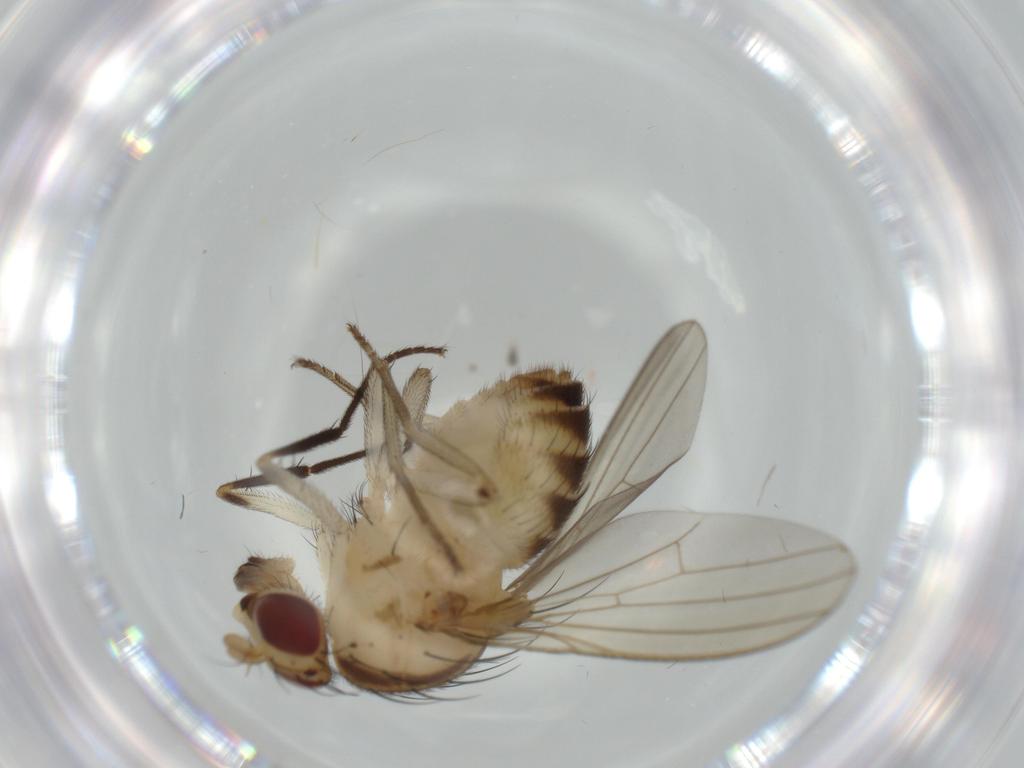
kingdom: Animalia
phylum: Arthropoda
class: Insecta
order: Diptera
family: Lauxaniidae
